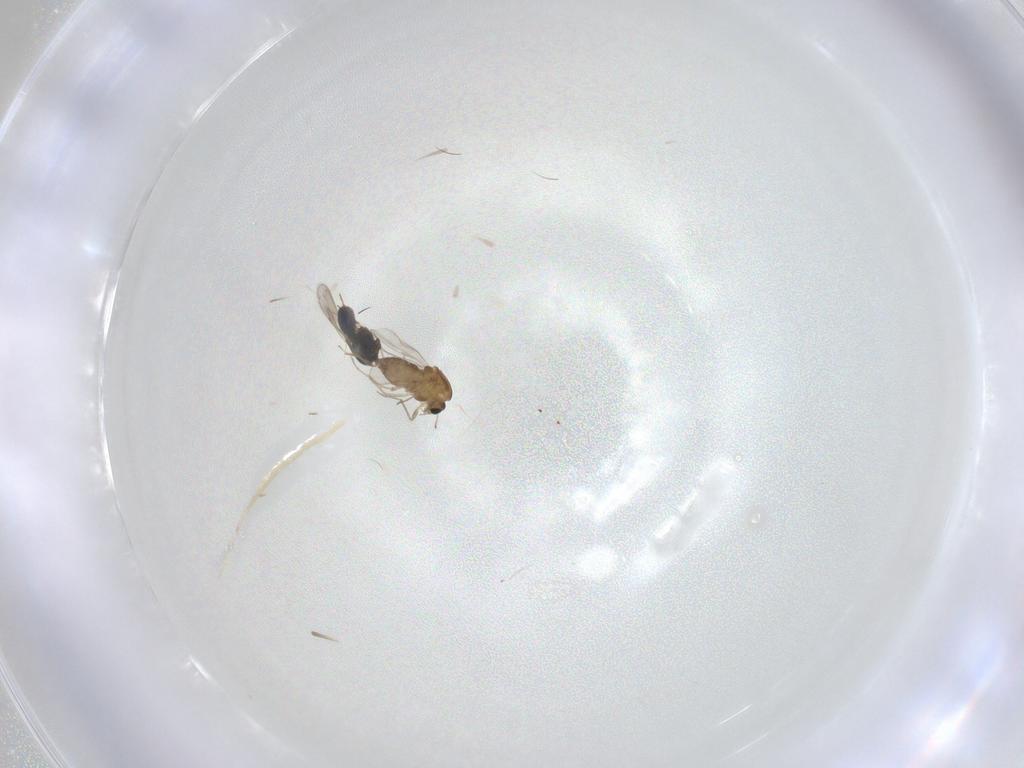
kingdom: Animalia
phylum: Arthropoda
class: Insecta
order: Diptera
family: Chironomidae
